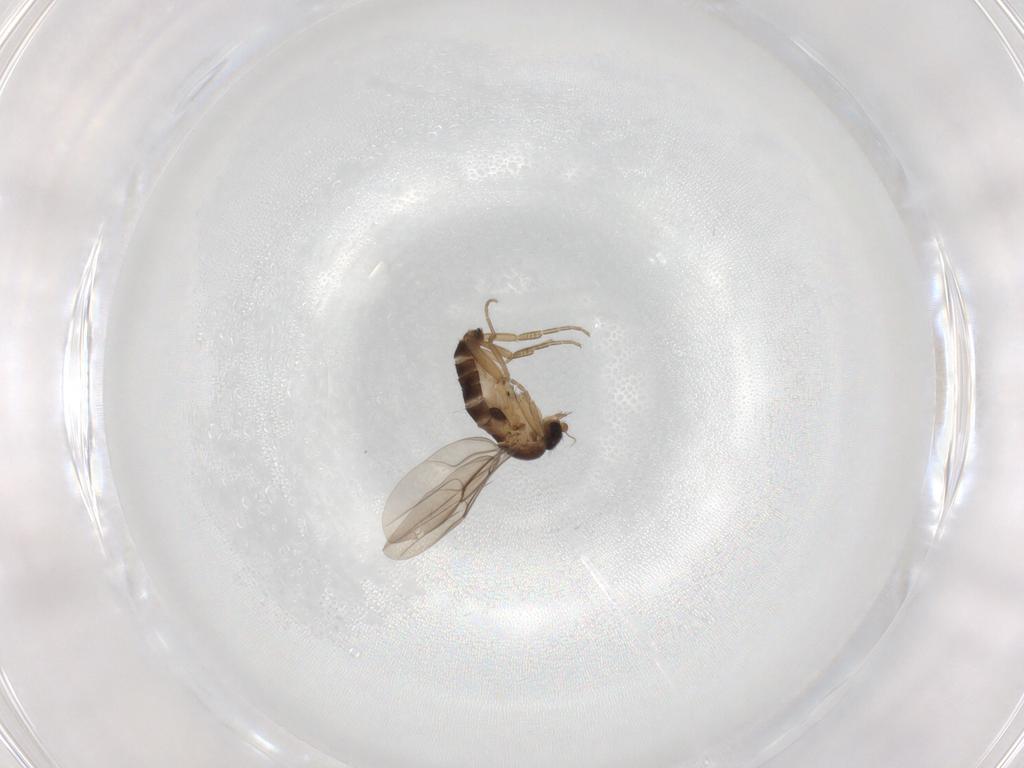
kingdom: Animalia
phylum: Arthropoda
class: Insecta
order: Diptera
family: Phoridae
